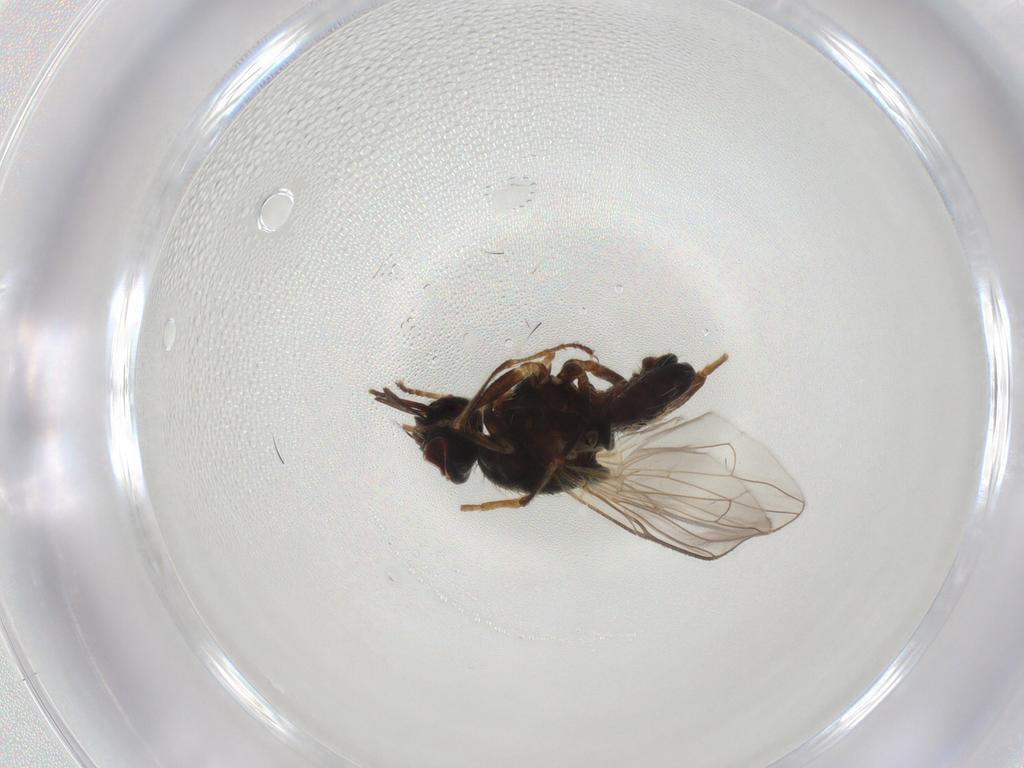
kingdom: Animalia
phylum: Arthropoda
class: Insecta
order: Diptera
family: Muscidae
